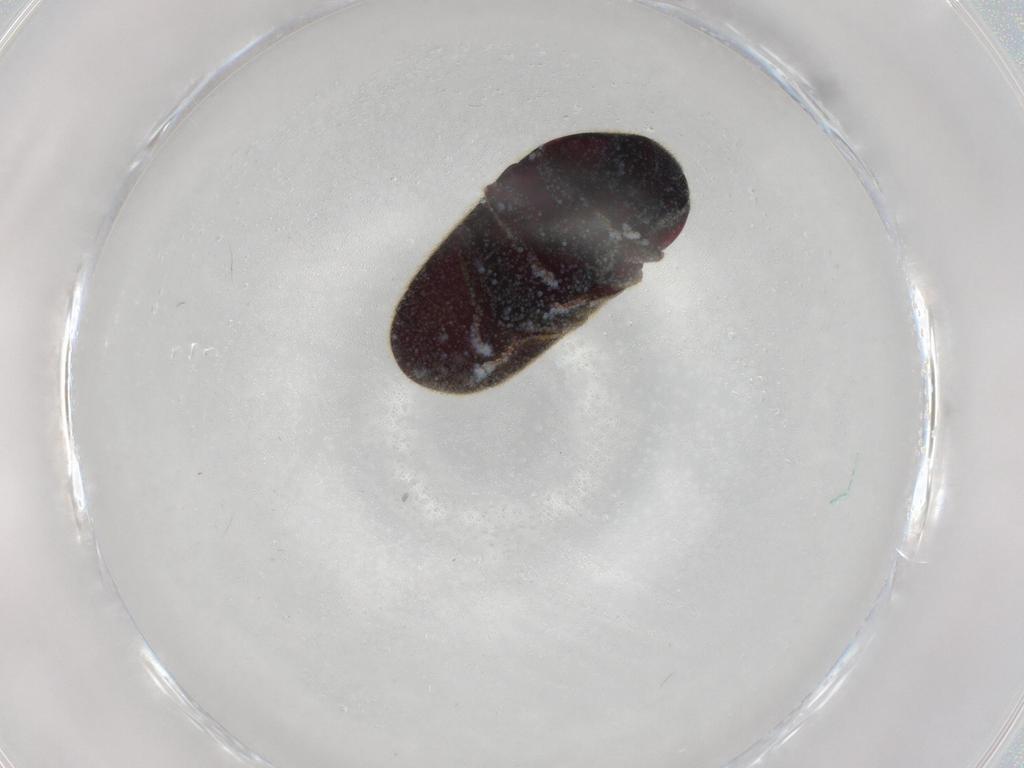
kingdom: Animalia
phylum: Arthropoda
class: Insecta
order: Coleoptera
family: Throscidae
